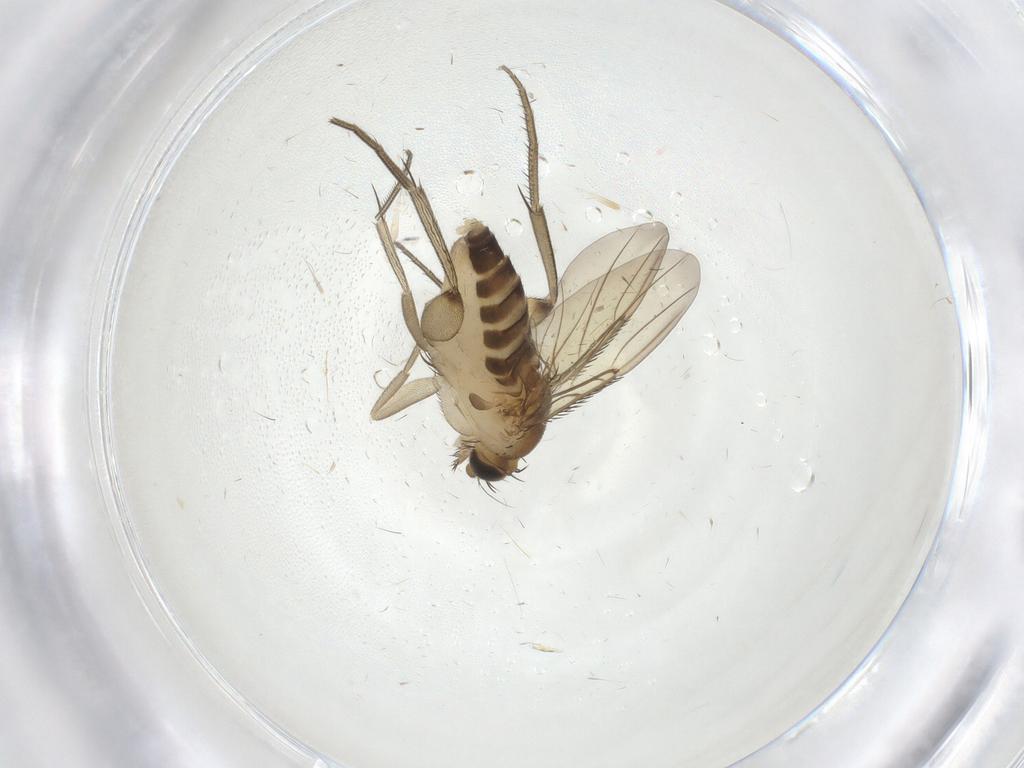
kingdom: Animalia
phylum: Arthropoda
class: Insecta
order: Diptera
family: Phoridae
